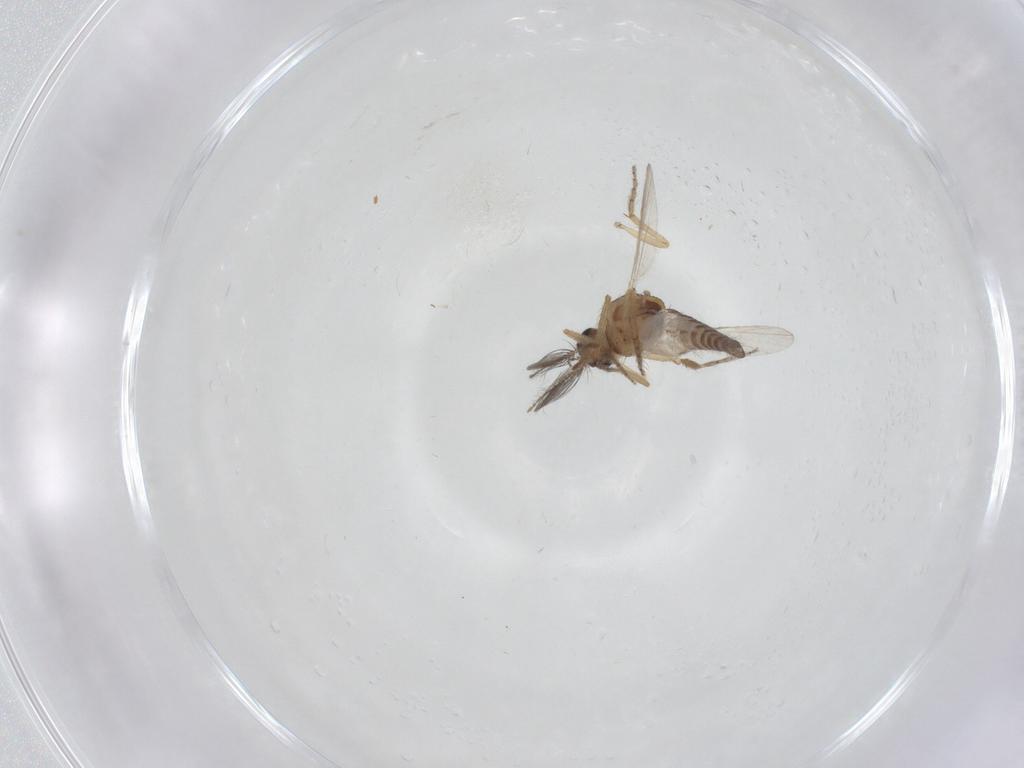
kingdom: Animalia
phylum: Arthropoda
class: Insecta
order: Diptera
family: Ceratopogonidae
